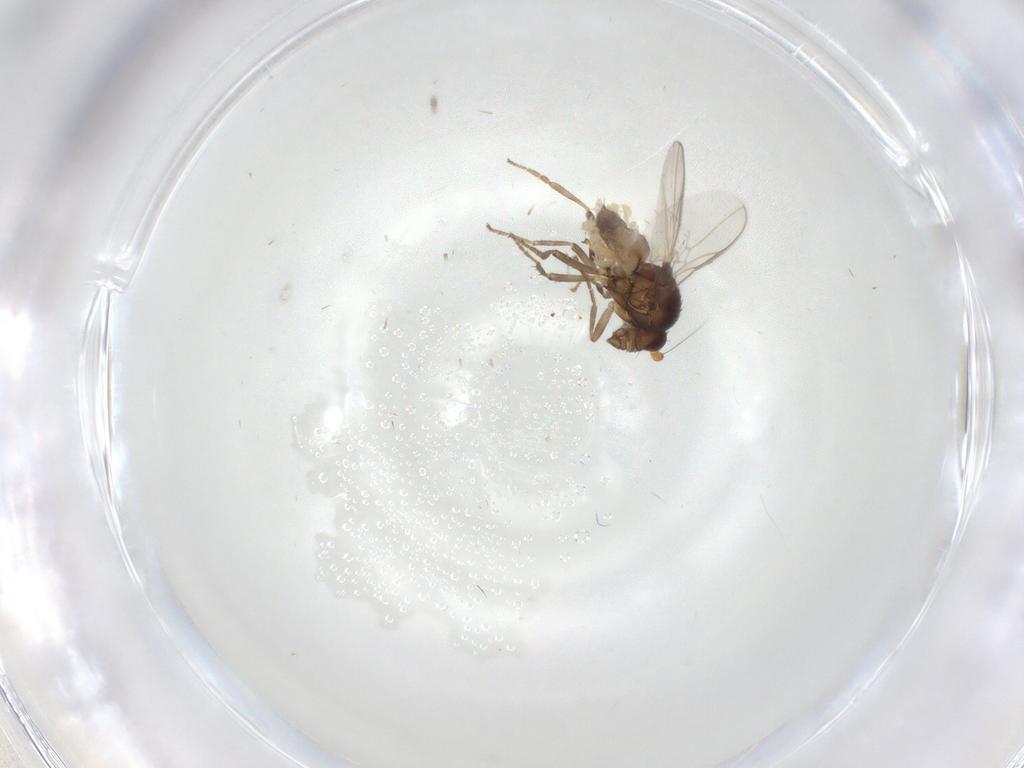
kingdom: Animalia
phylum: Arthropoda
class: Insecta
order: Diptera
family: Sphaeroceridae
